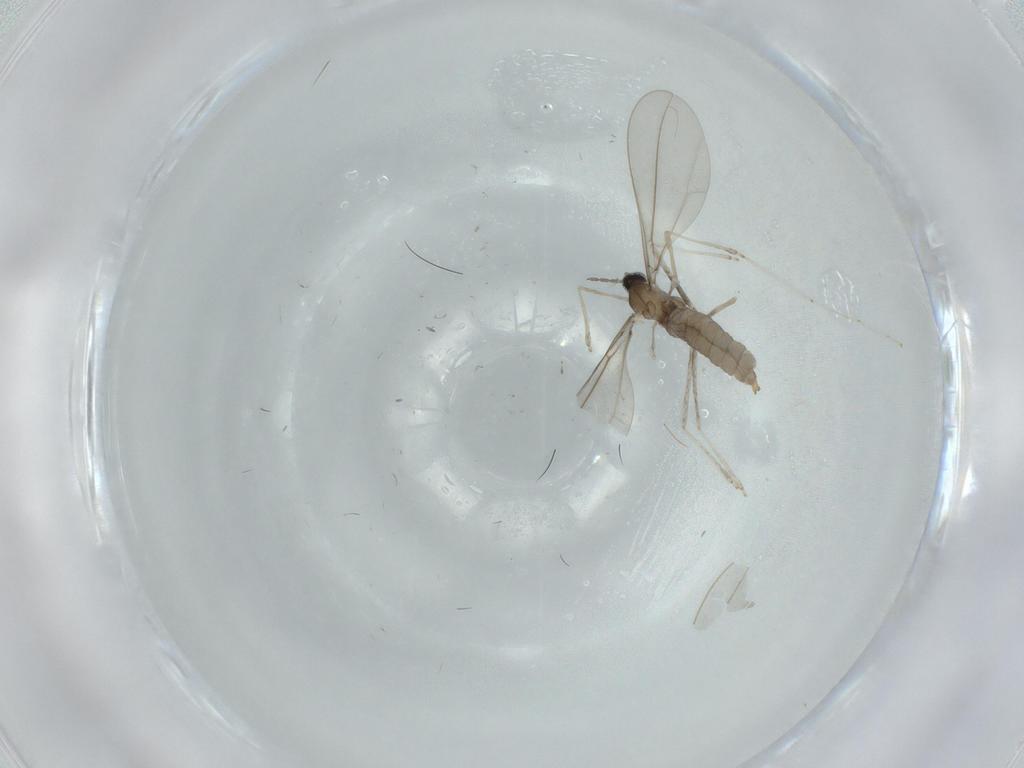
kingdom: Animalia
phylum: Arthropoda
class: Insecta
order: Diptera
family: Cecidomyiidae
